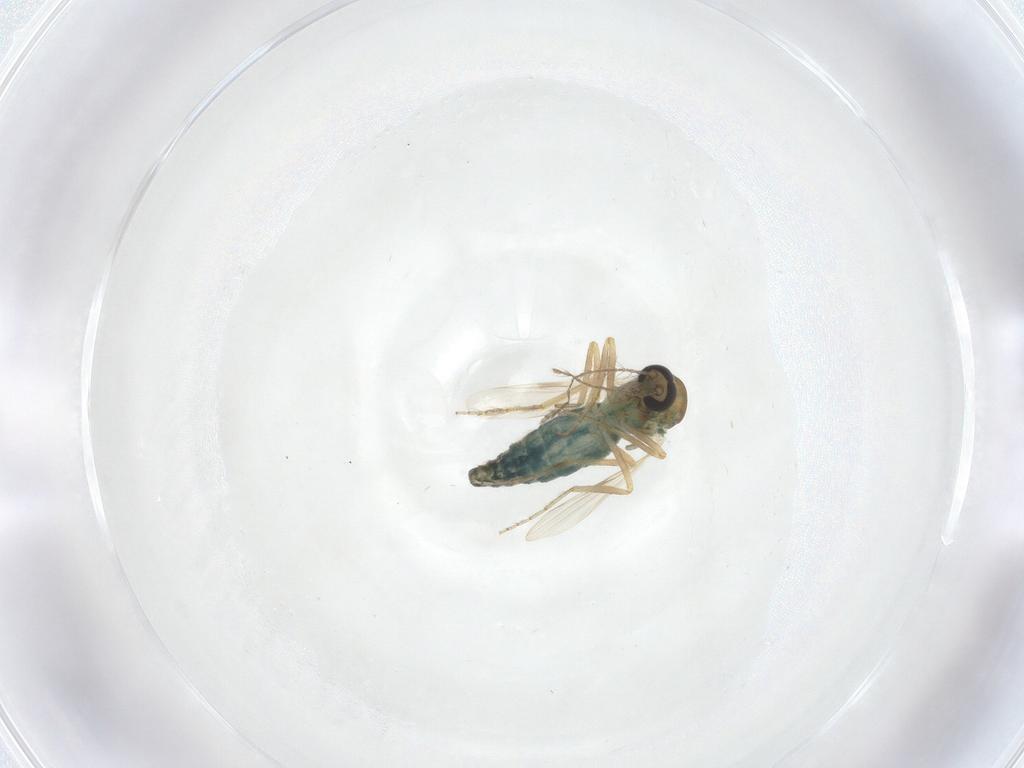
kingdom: Animalia
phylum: Arthropoda
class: Insecta
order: Diptera
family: Ceratopogonidae
